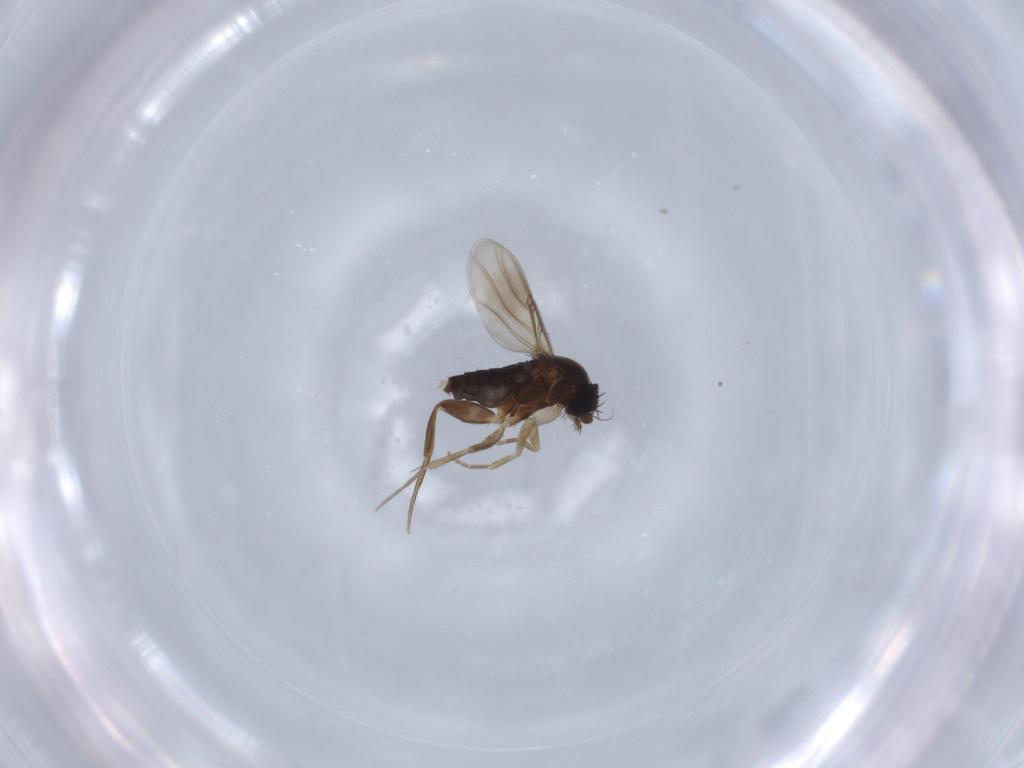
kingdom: Animalia
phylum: Arthropoda
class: Insecta
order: Diptera
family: Phoridae
